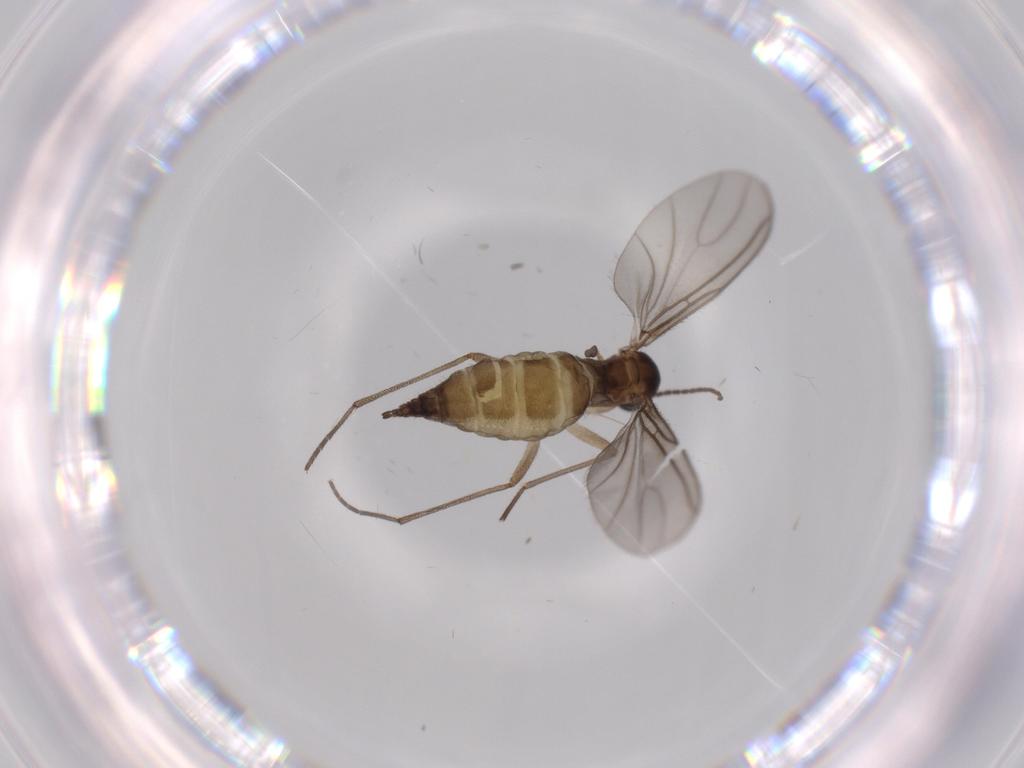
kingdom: Animalia
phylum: Arthropoda
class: Insecta
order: Diptera
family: Sciaridae
